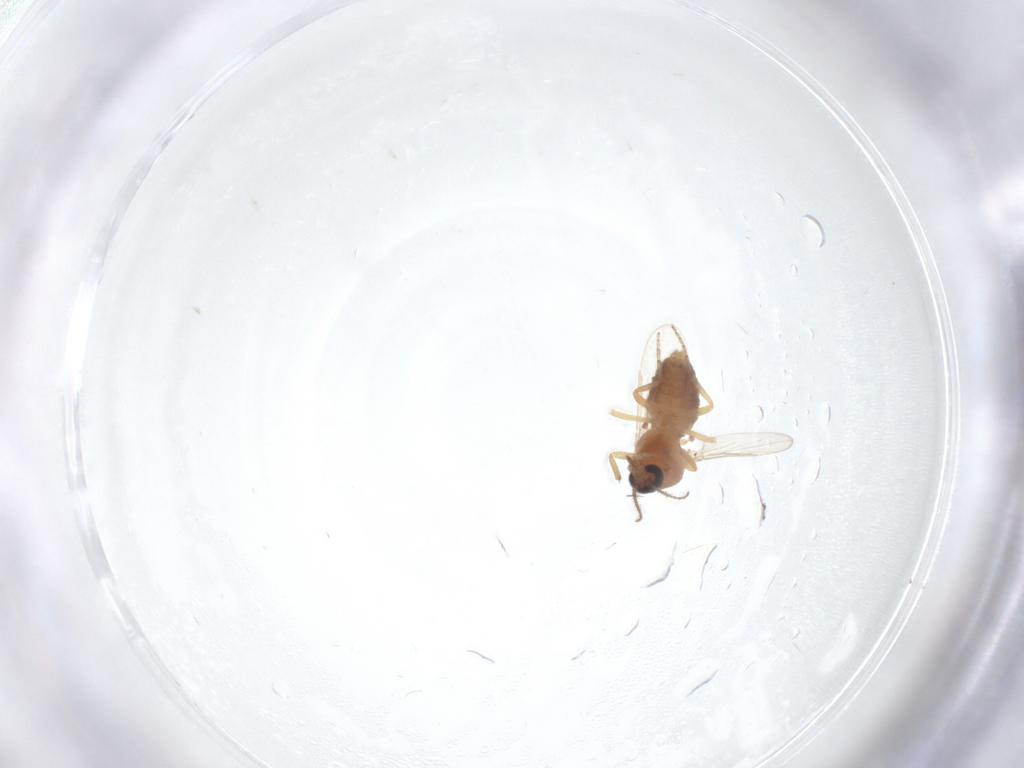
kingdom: Animalia
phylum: Arthropoda
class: Insecta
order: Diptera
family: Ceratopogonidae
